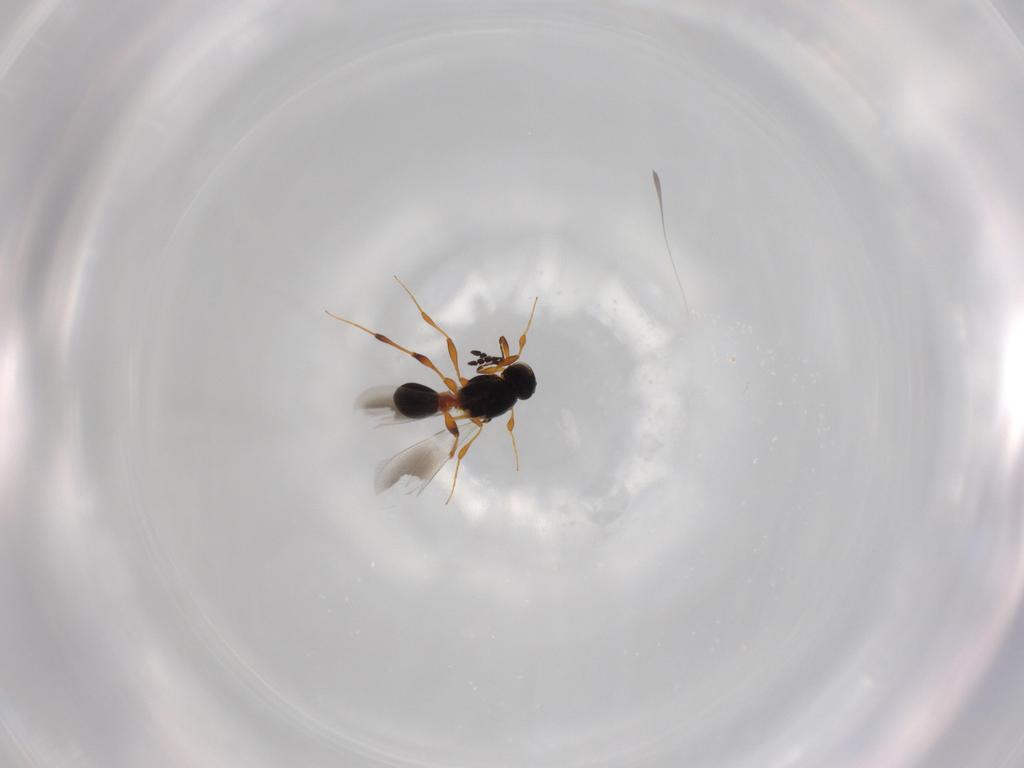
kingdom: Animalia
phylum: Arthropoda
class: Insecta
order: Hymenoptera
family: Platygastridae
